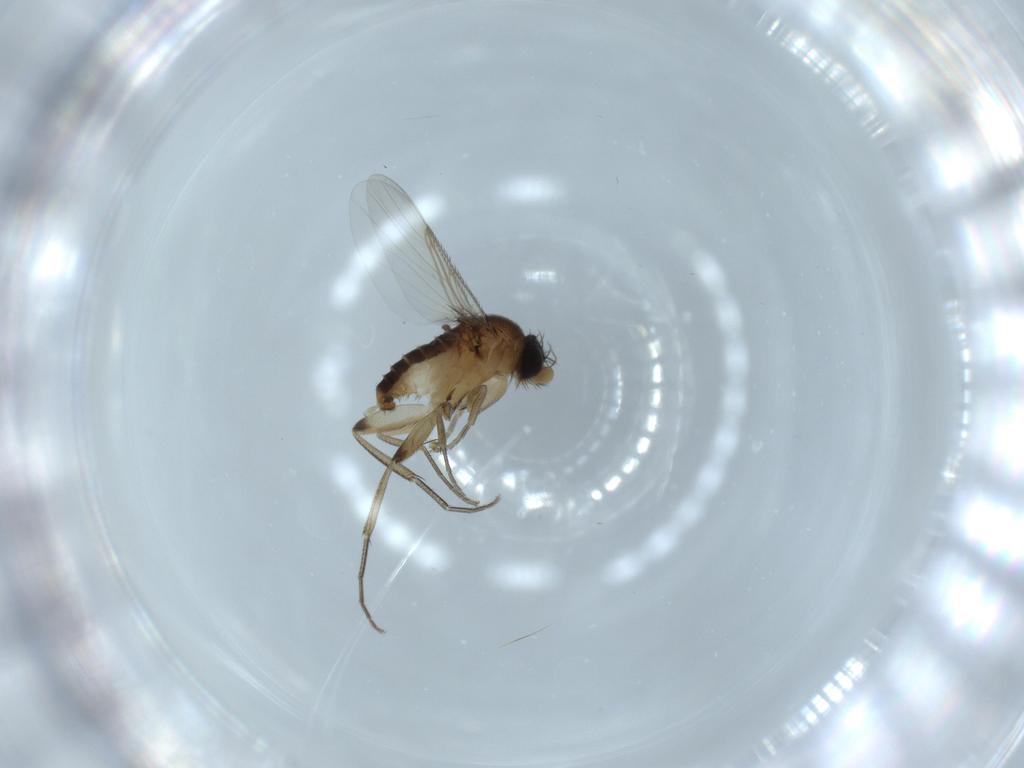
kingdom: Animalia
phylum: Arthropoda
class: Insecta
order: Diptera
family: Phoridae
